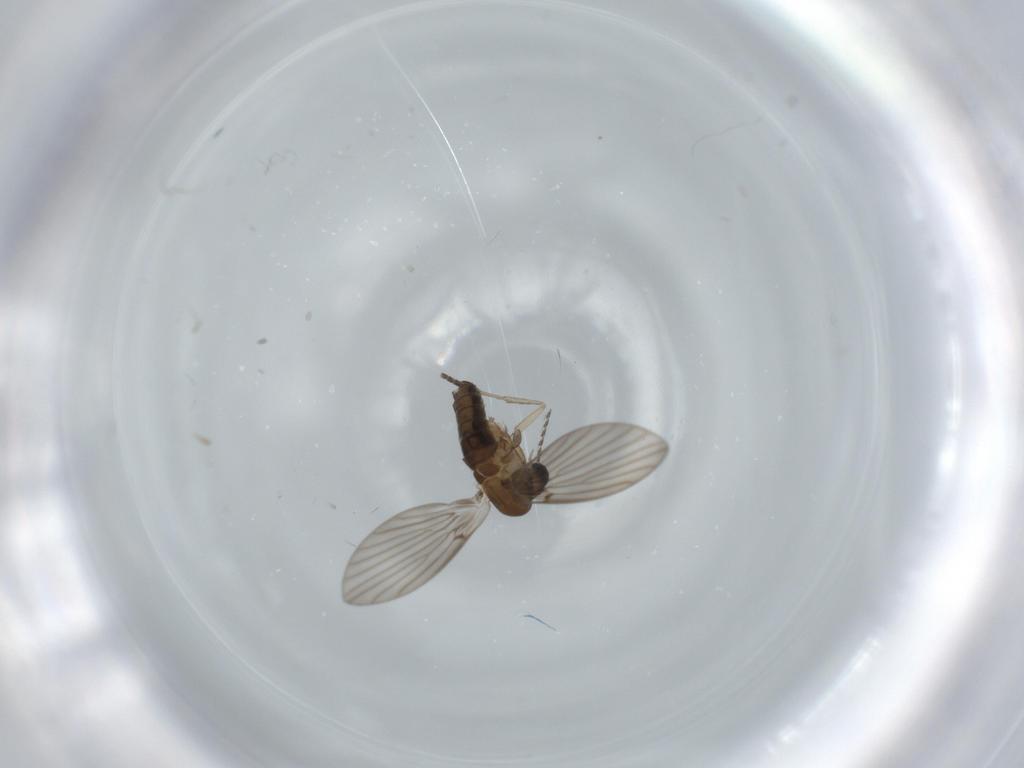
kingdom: Animalia
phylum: Arthropoda
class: Insecta
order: Diptera
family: Psychodidae
